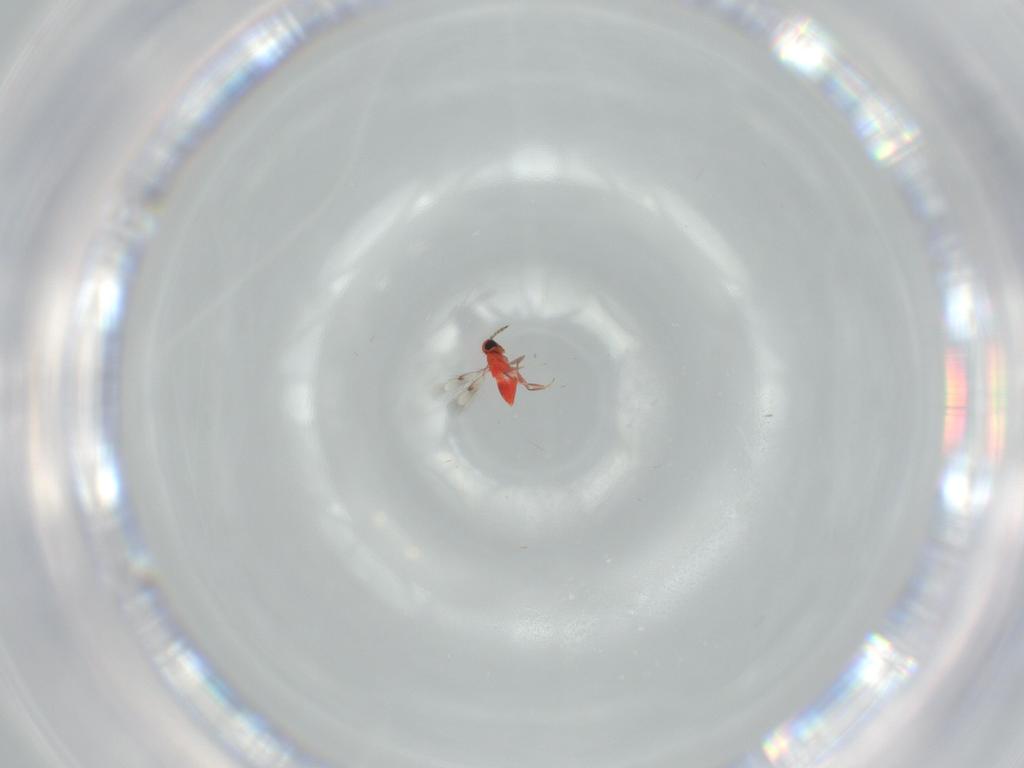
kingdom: Animalia
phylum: Arthropoda
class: Insecta
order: Hymenoptera
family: Trichogrammatidae
